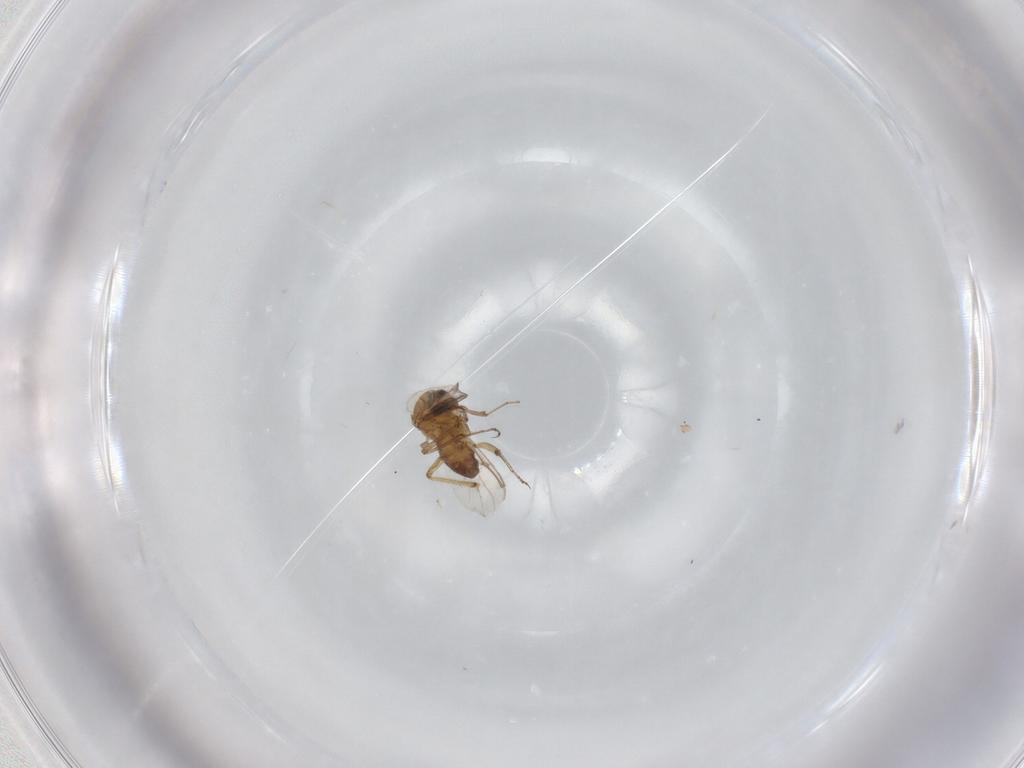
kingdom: Animalia
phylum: Arthropoda
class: Insecta
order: Diptera
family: Ceratopogonidae
